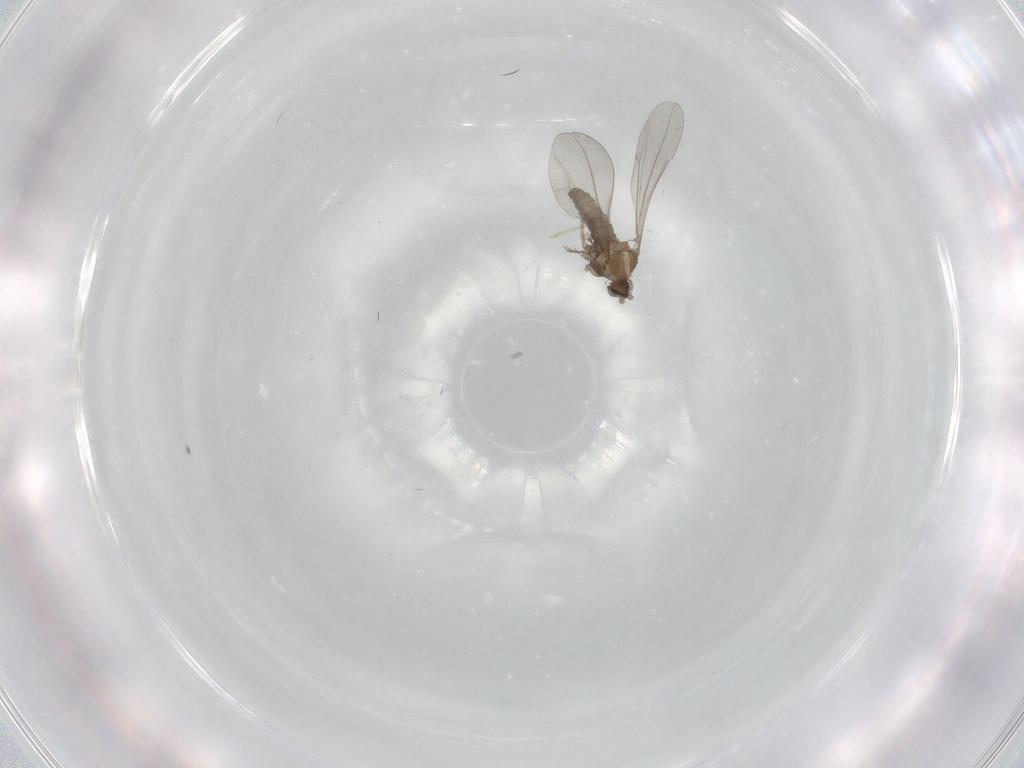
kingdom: Animalia
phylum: Arthropoda
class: Insecta
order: Diptera
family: Cecidomyiidae
